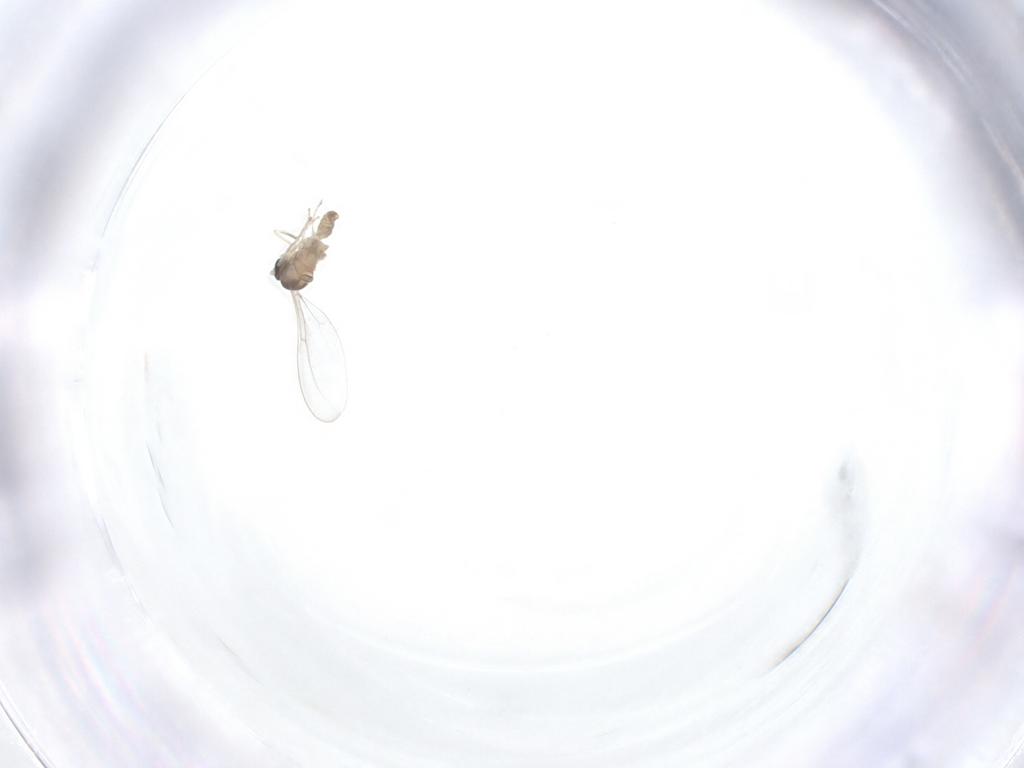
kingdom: Animalia
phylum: Arthropoda
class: Insecta
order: Diptera
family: Cecidomyiidae
